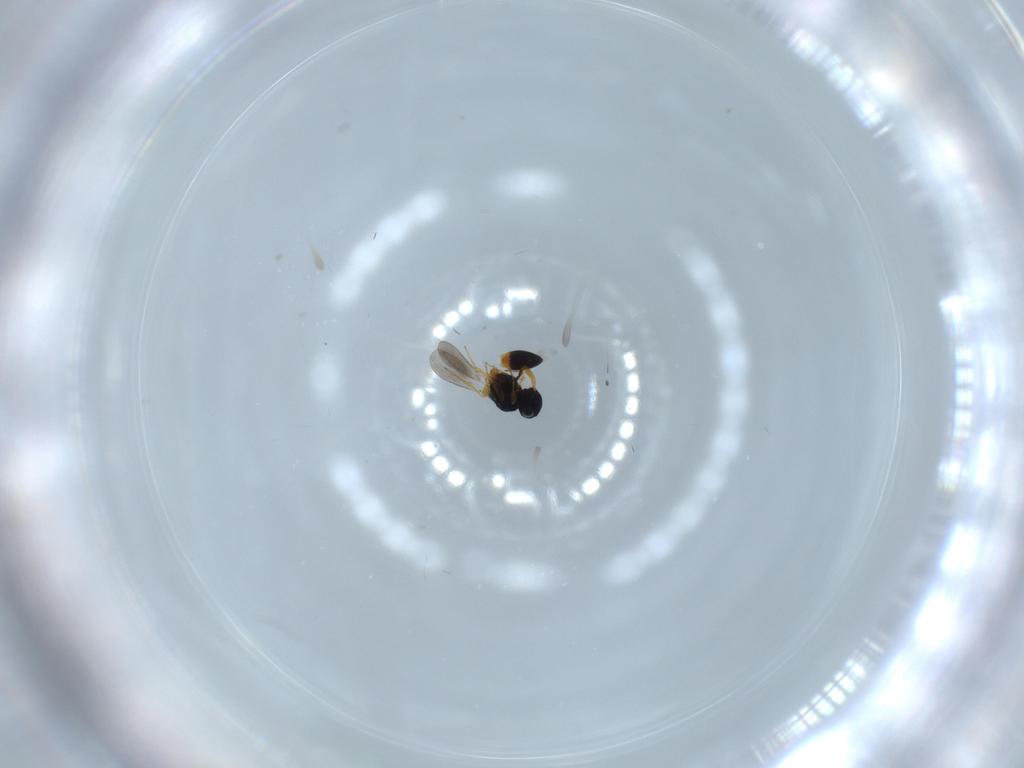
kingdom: Animalia
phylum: Arthropoda
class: Insecta
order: Hymenoptera
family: Platygastridae
